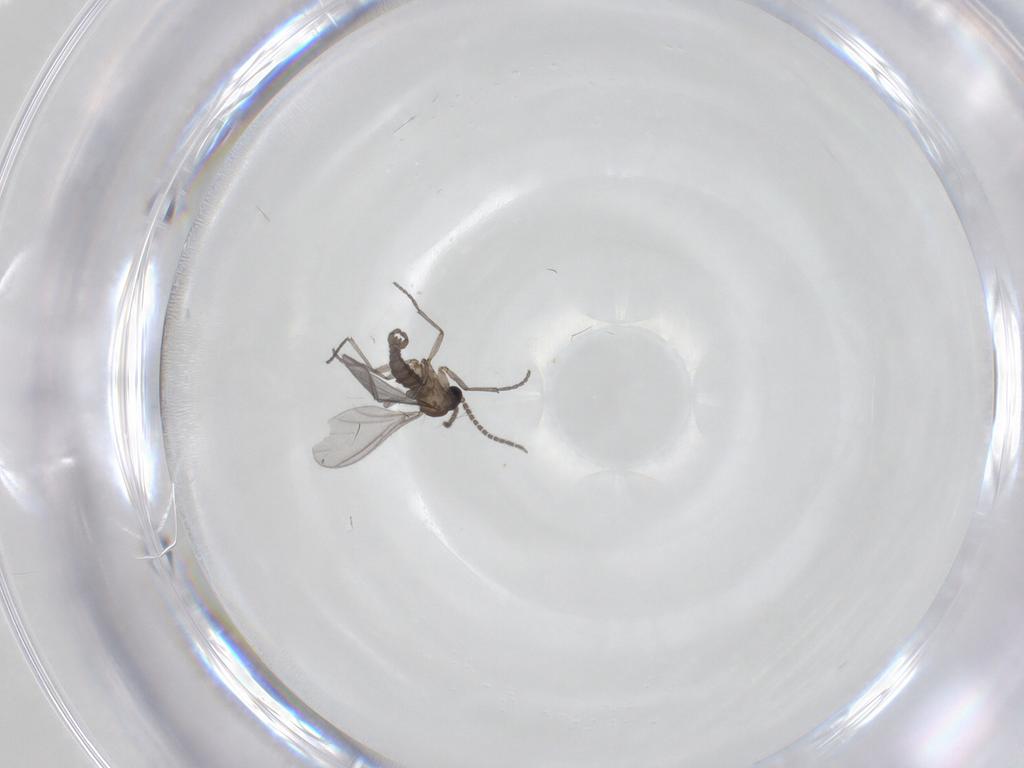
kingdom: Animalia
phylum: Arthropoda
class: Insecta
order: Diptera
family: Sciaridae
